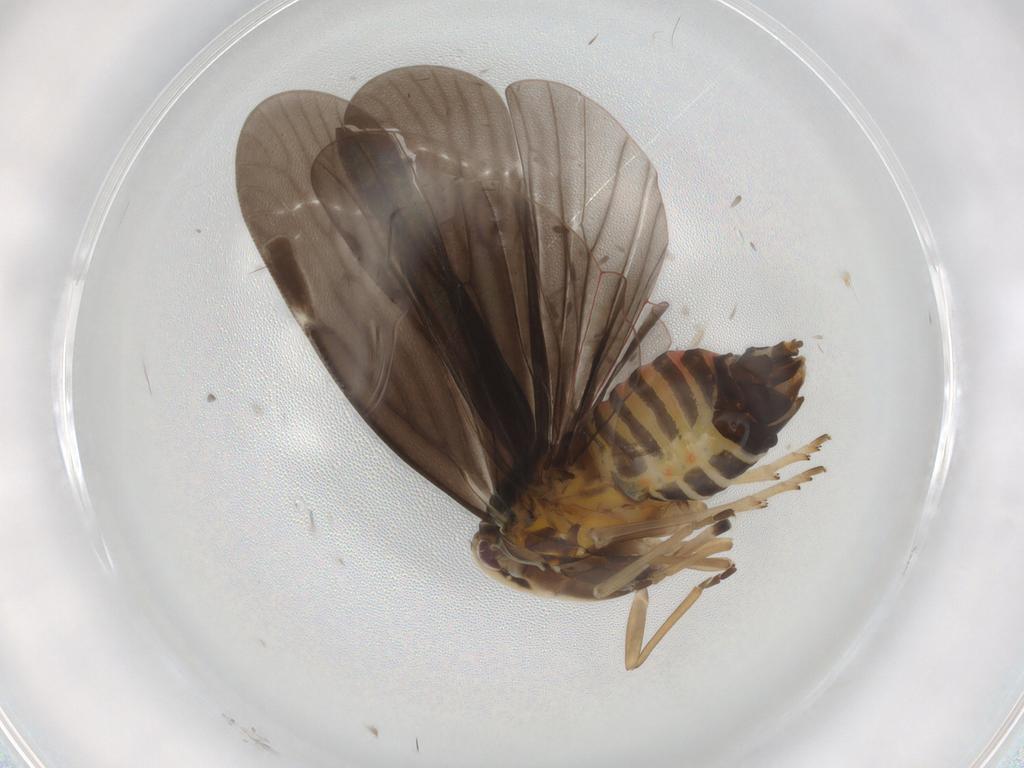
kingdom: Animalia
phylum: Arthropoda
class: Insecta
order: Hemiptera
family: Derbidae
